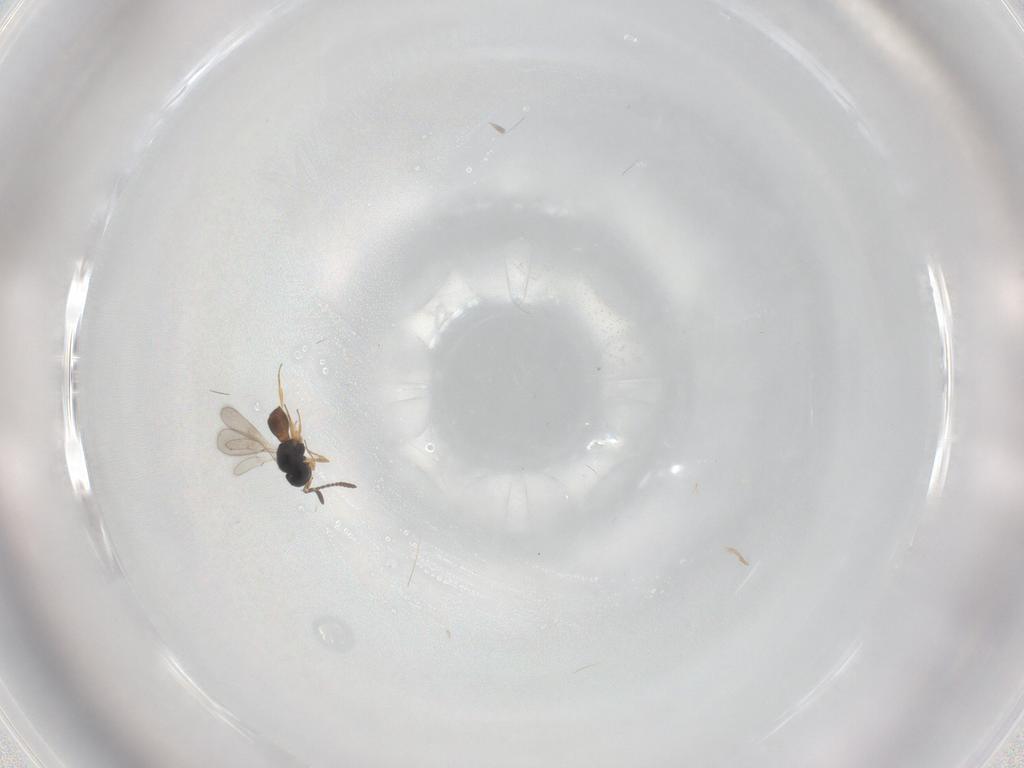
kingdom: Animalia
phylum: Arthropoda
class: Insecta
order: Hymenoptera
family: Scelionidae
